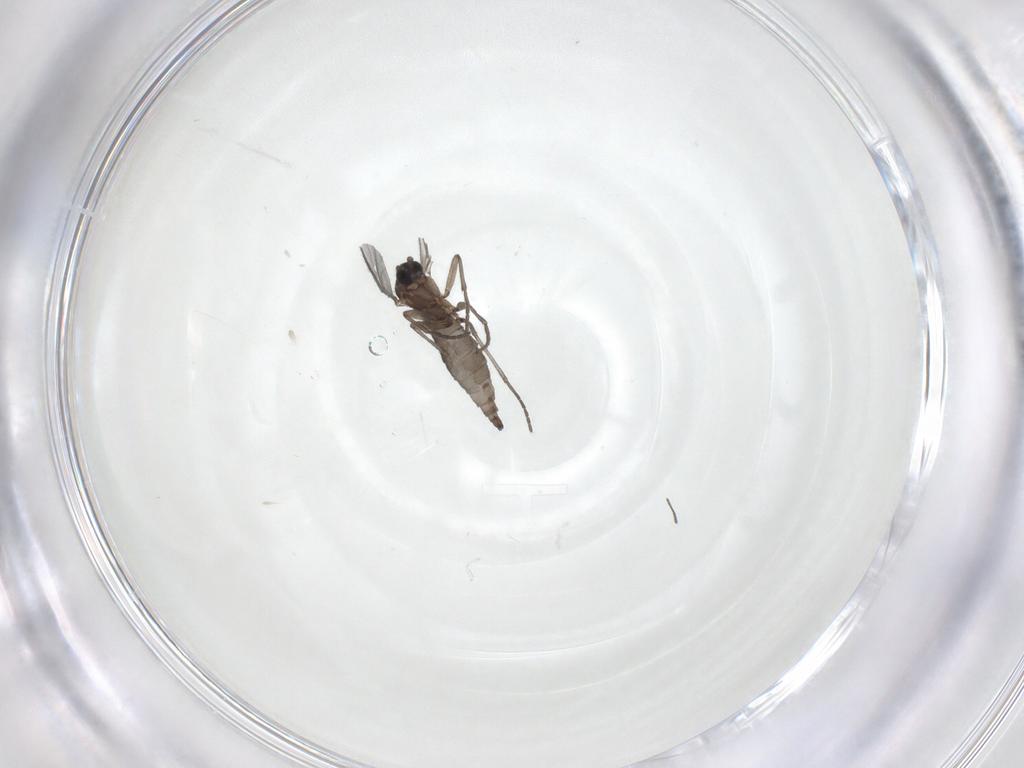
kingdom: Animalia
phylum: Arthropoda
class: Insecta
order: Diptera
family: Sciaridae
